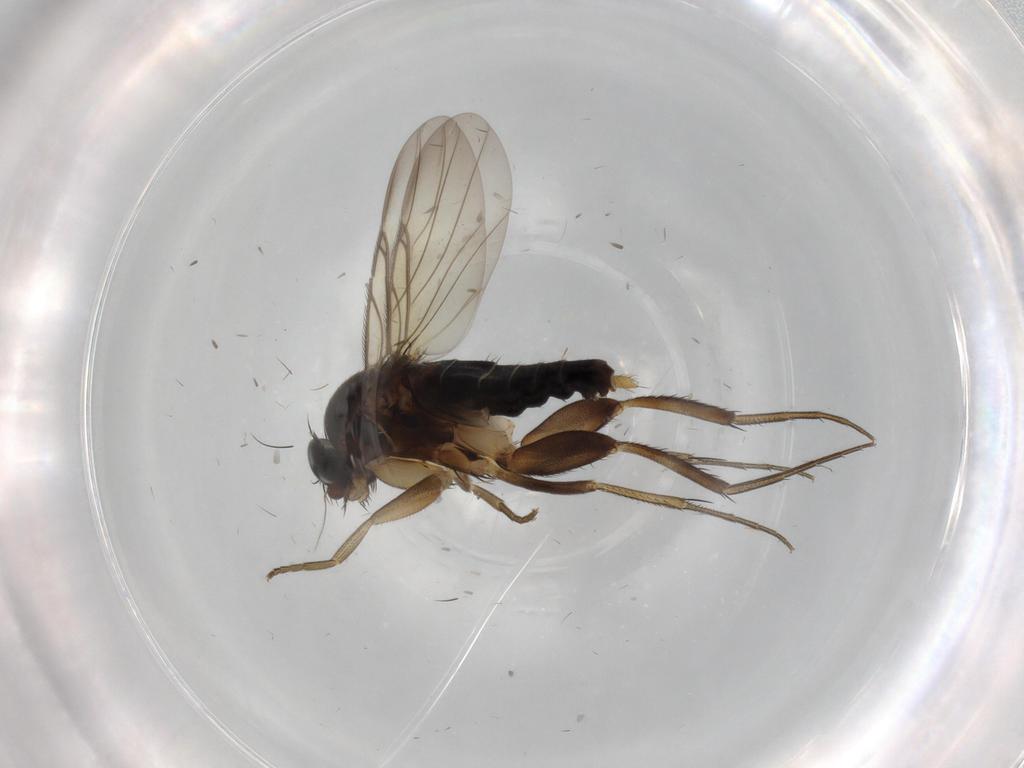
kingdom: Animalia
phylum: Arthropoda
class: Insecta
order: Diptera
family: Phoridae
